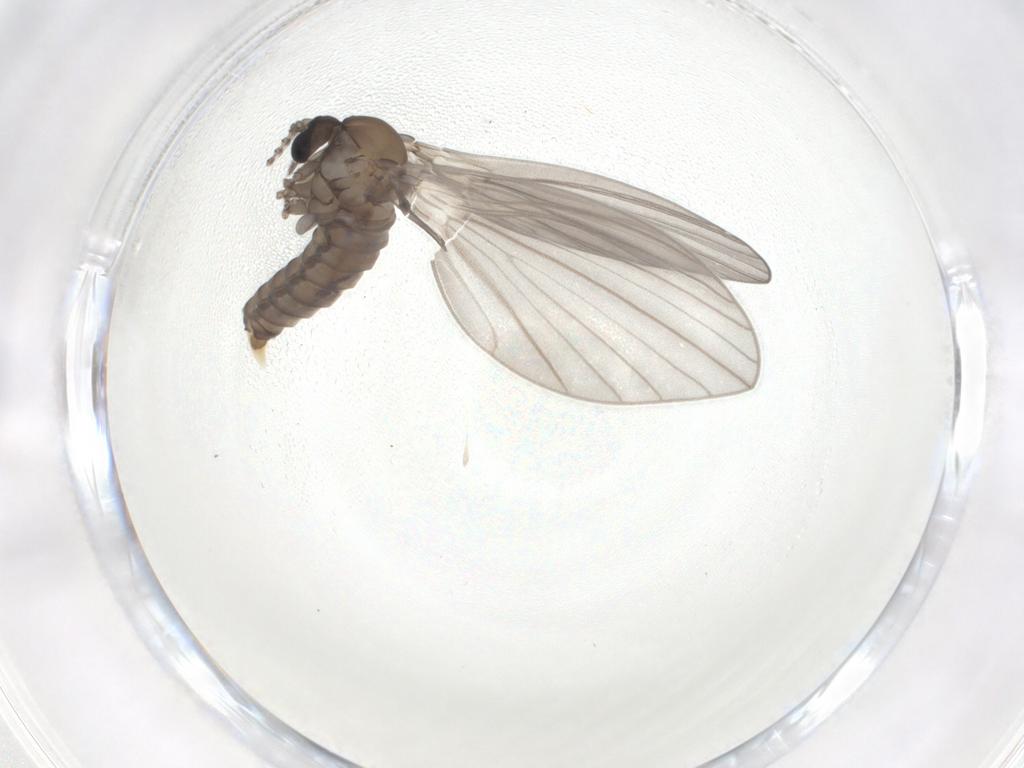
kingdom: Animalia
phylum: Arthropoda
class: Insecta
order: Diptera
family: Psychodidae
